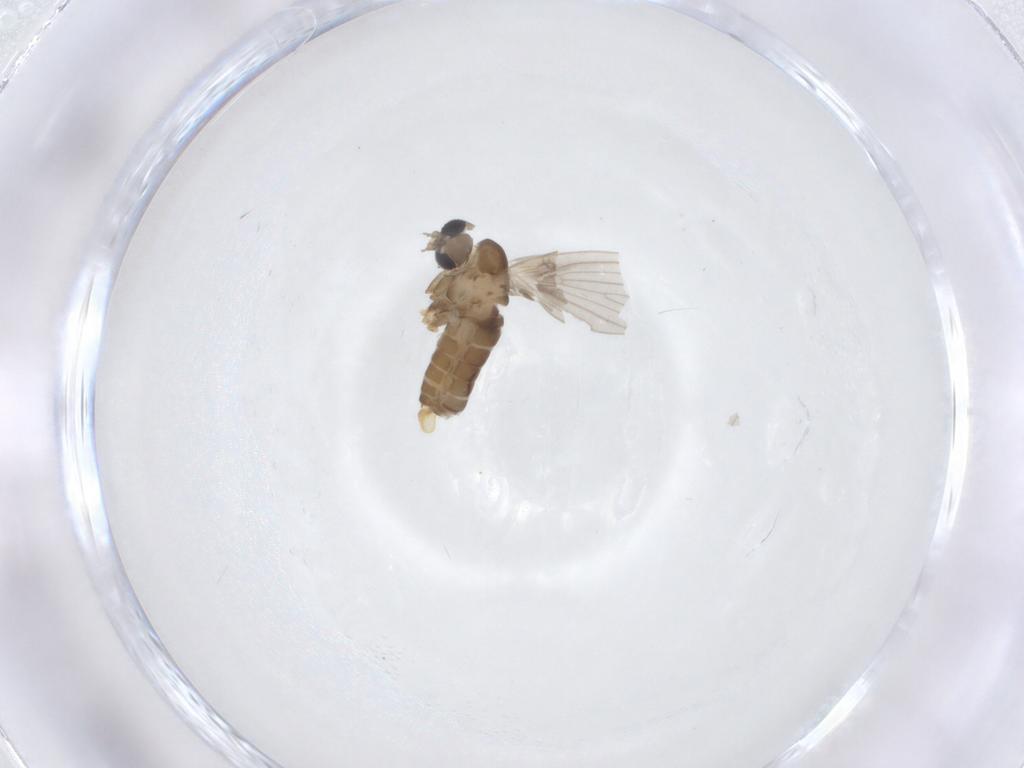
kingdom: Animalia
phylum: Arthropoda
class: Insecta
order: Diptera
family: Psychodidae
